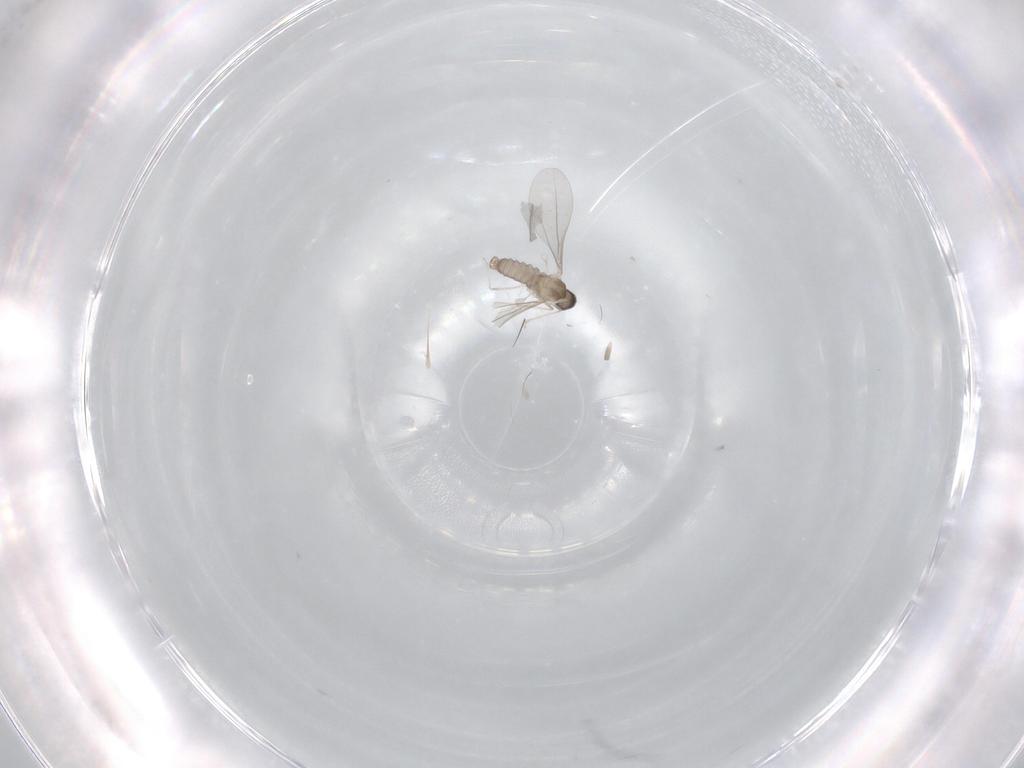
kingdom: Animalia
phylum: Arthropoda
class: Insecta
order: Diptera
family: Cecidomyiidae
